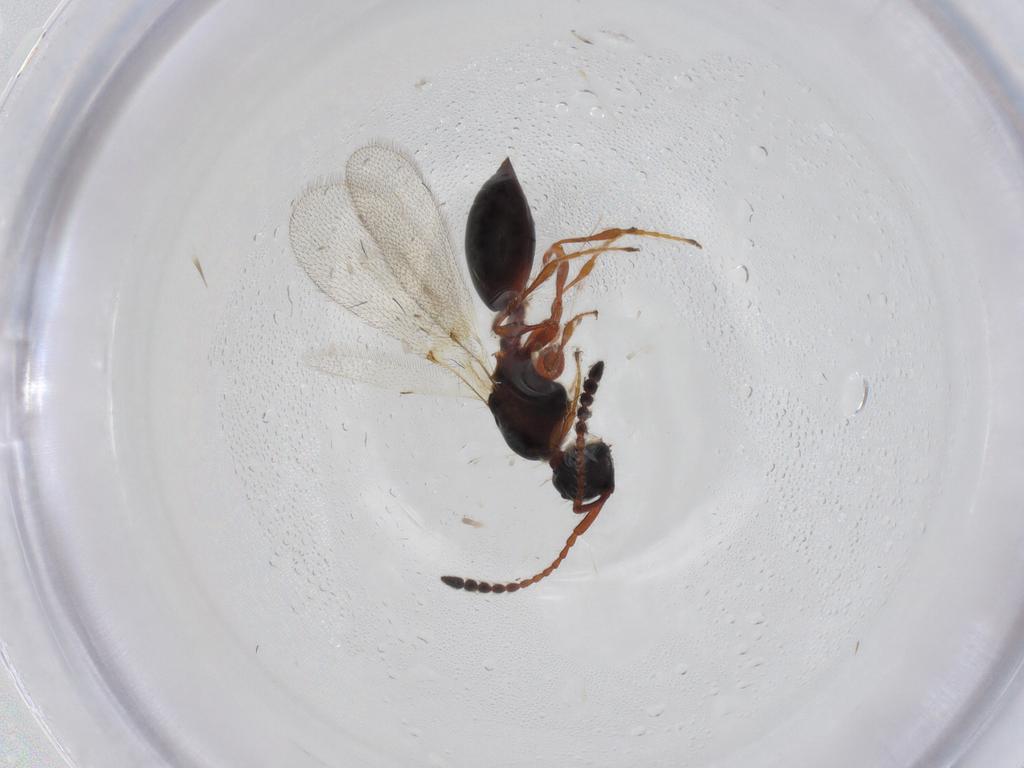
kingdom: Animalia
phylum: Arthropoda
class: Insecta
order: Hymenoptera
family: Diapriidae
